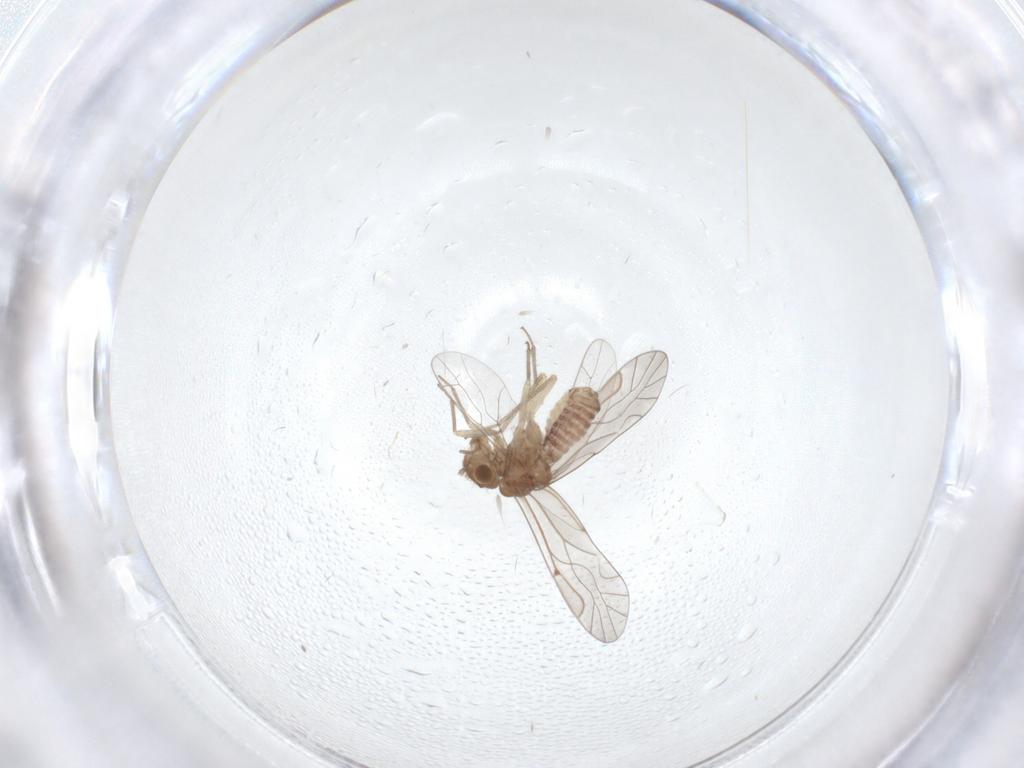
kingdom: Animalia
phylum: Arthropoda
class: Insecta
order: Psocodea
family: Lachesillidae
